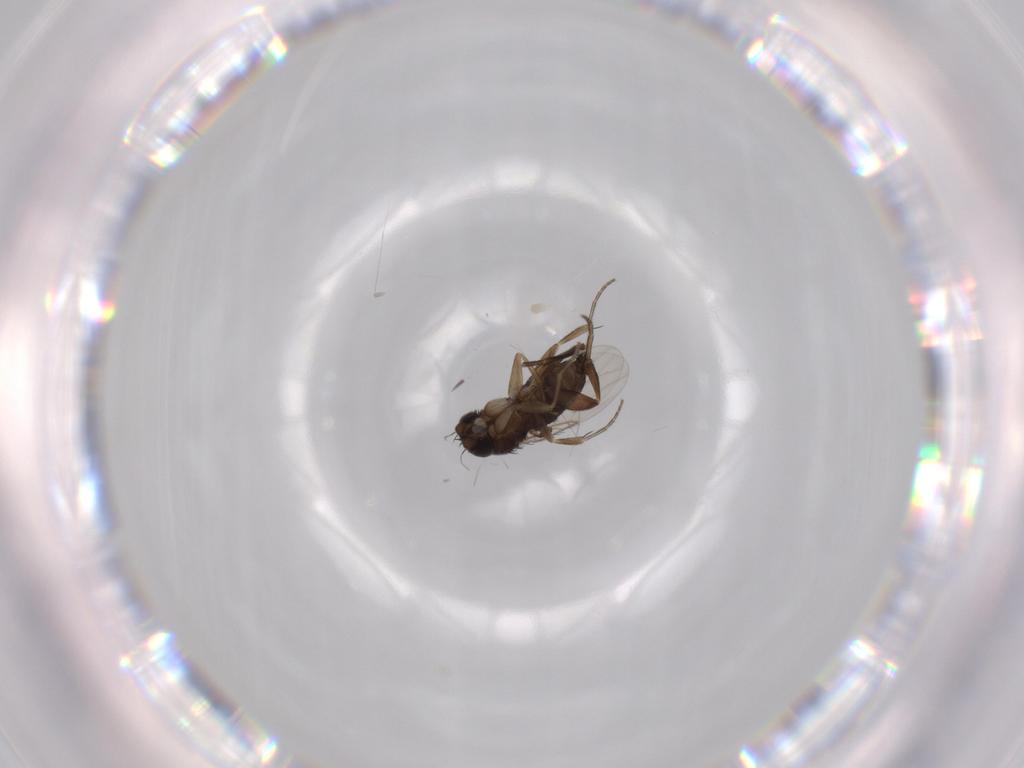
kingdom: Animalia
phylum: Arthropoda
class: Insecta
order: Diptera
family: Phoridae
